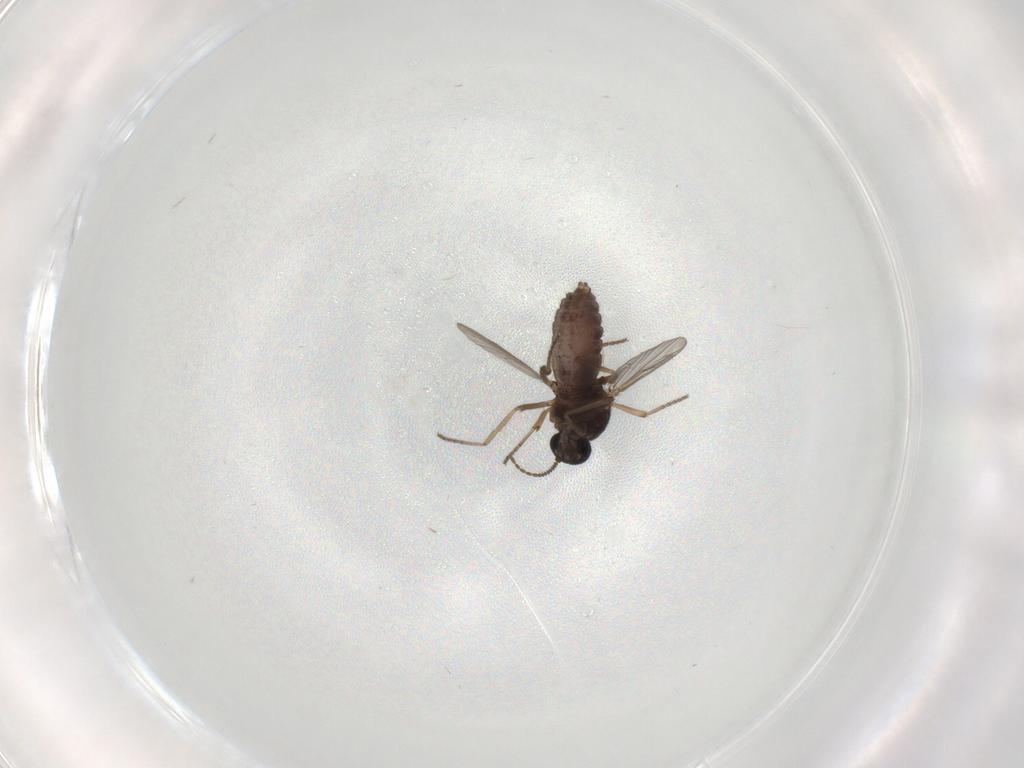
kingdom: Animalia
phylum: Arthropoda
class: Insecta
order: Diptera
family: Ceratopogonidae
